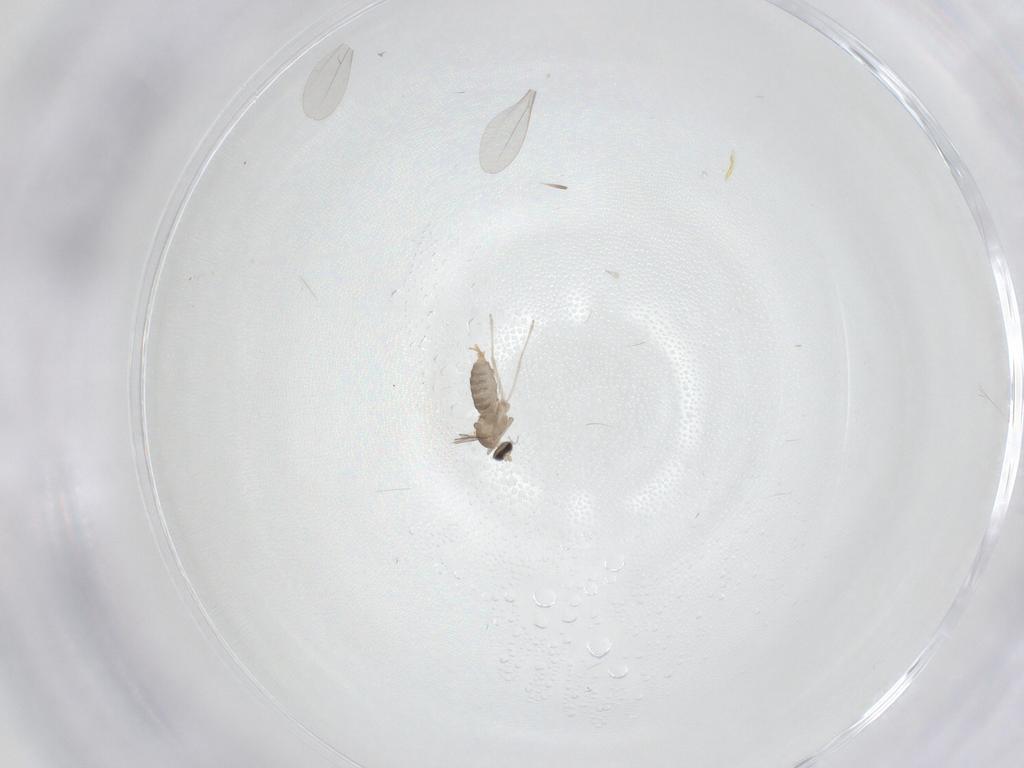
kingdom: Animalia
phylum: Arthropoda
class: Insecta
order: Diptera
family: Cecidomyiidae
